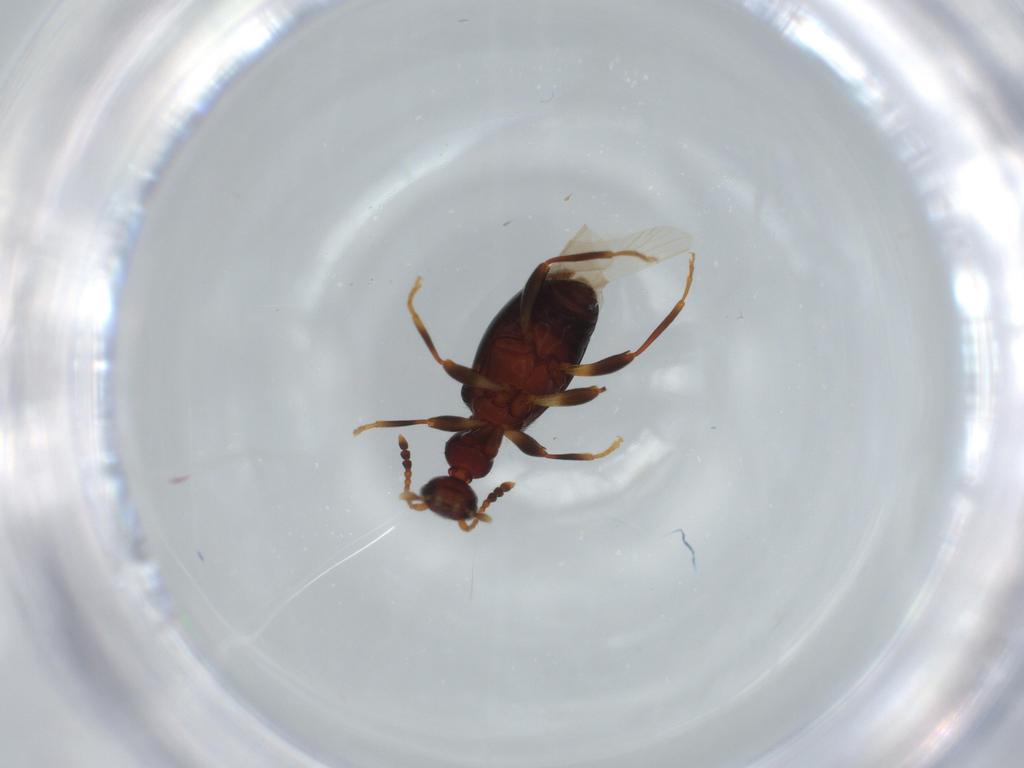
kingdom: Animalia
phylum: Arthropoda
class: Insecta
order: Coleoptera
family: Anthicidae
